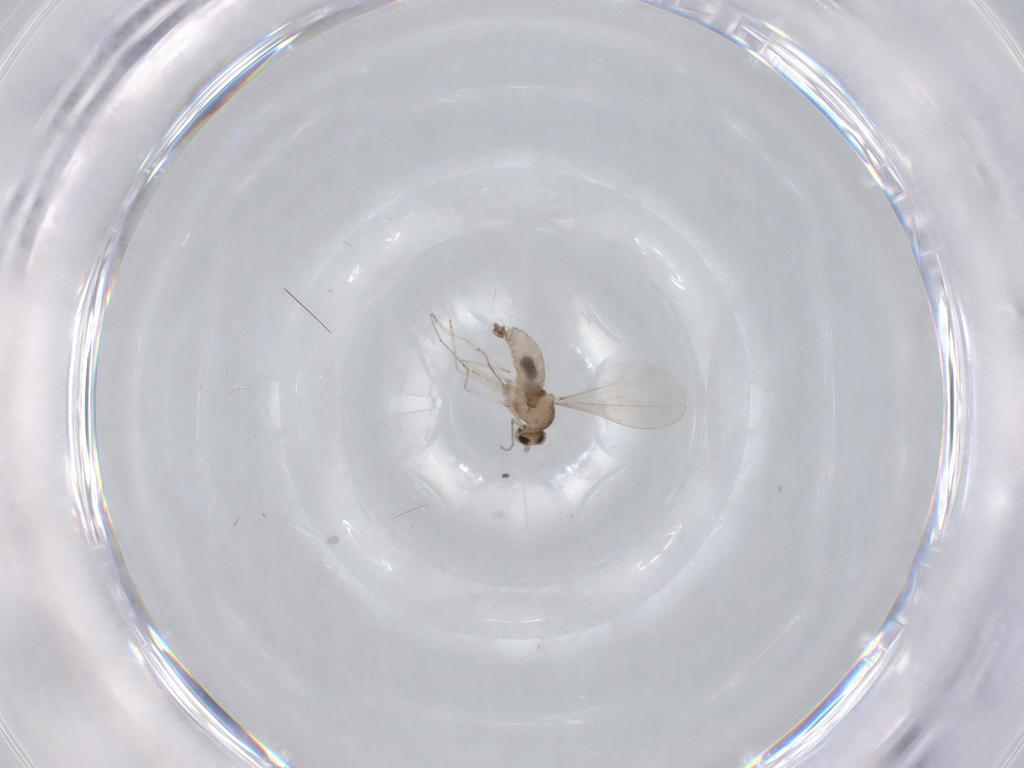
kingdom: Animalia
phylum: Arthropoda
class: Insecta
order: Diptera
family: Cecidomyiidae
